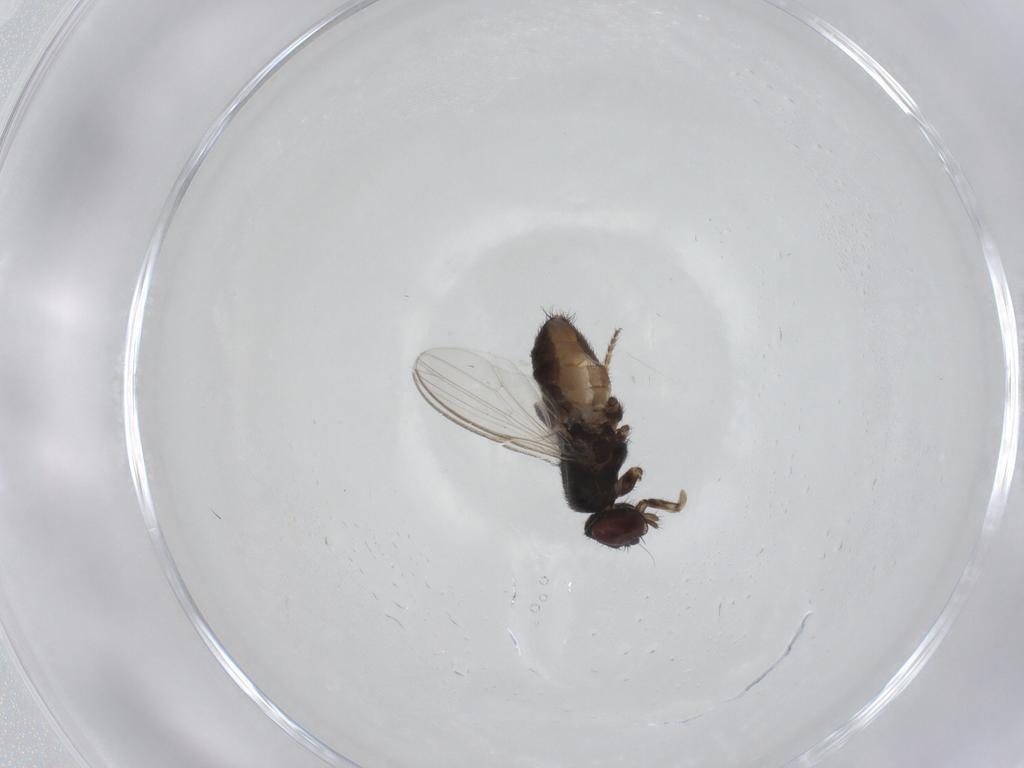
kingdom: Animalia
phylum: Arthropoda
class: Insecta
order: Diptera
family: Milichiidae
